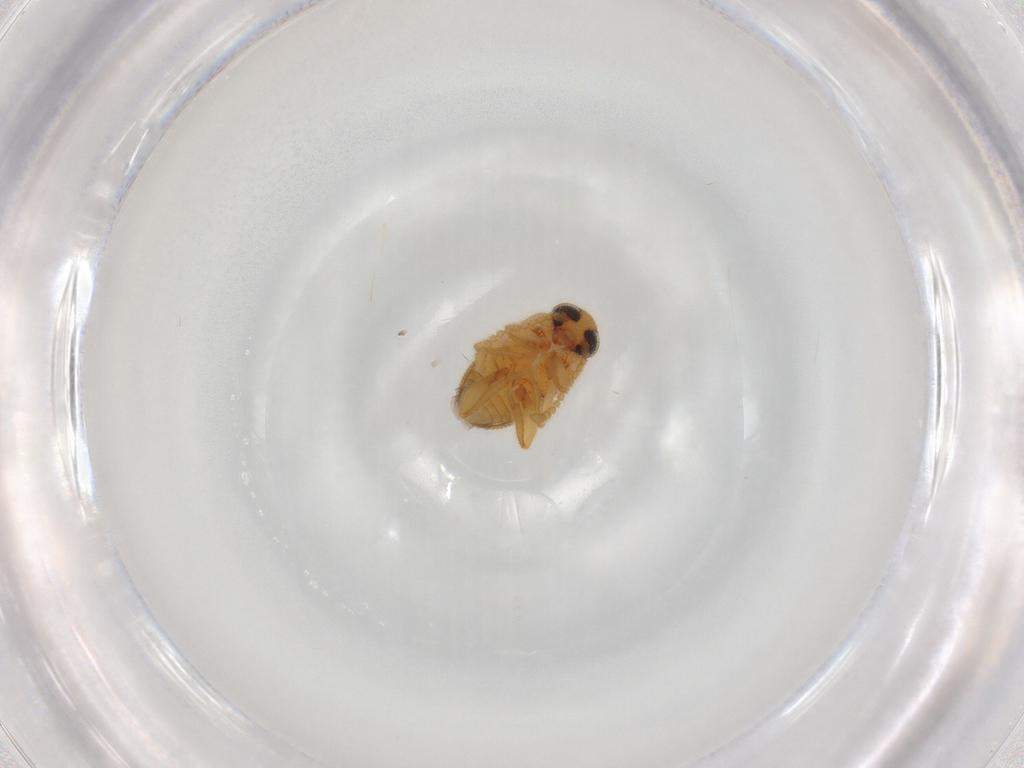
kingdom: Animalia
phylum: Arthropoda
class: Insecta
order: Coleoptera
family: Aderidae
